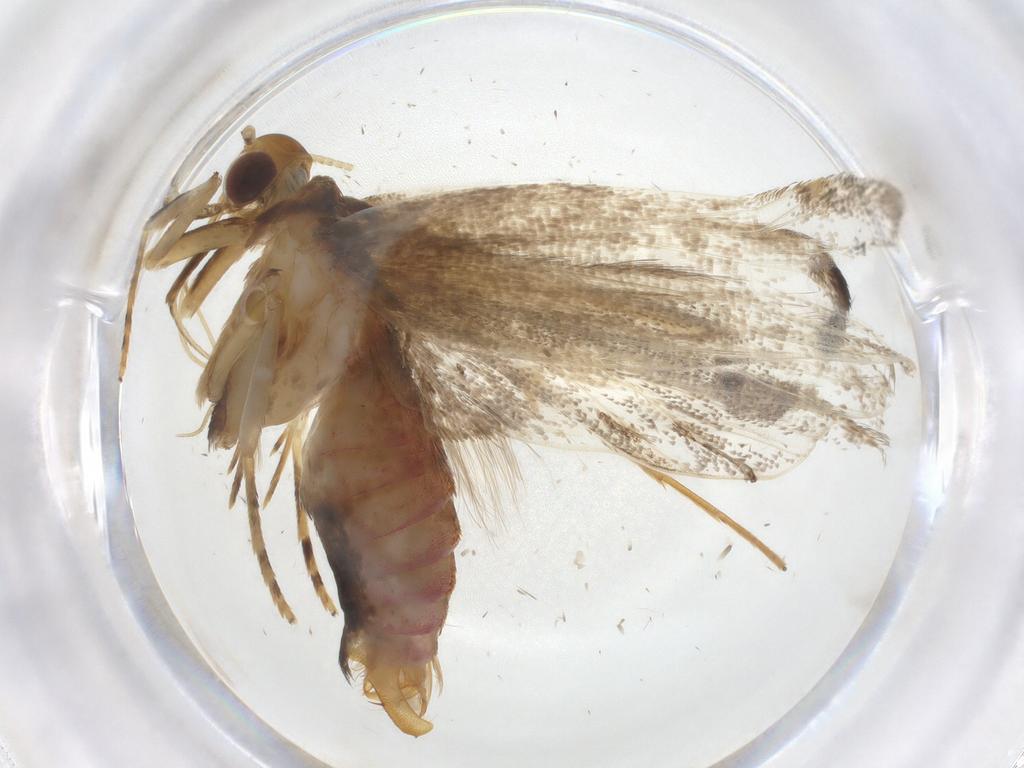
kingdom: Animalia
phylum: Arthropoda
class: Insecta
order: Lepidoptera
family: Lecithoceridae
